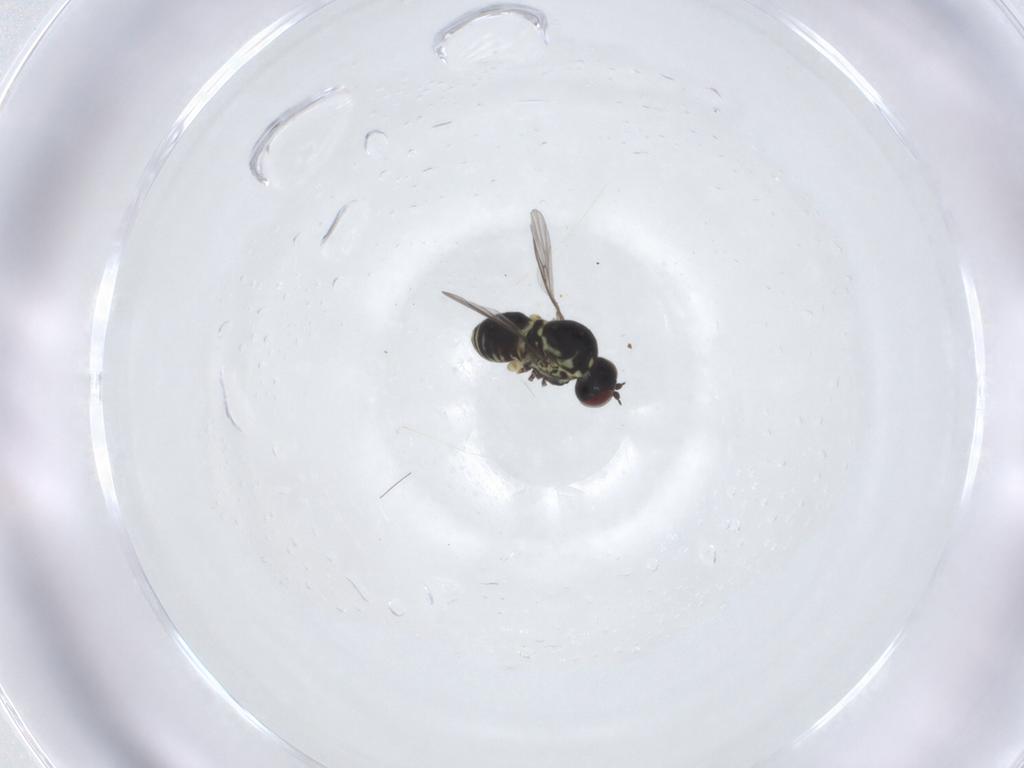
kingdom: Animalia
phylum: Arthropoda
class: Insecta
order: Diptera
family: Mythicomyiidae
